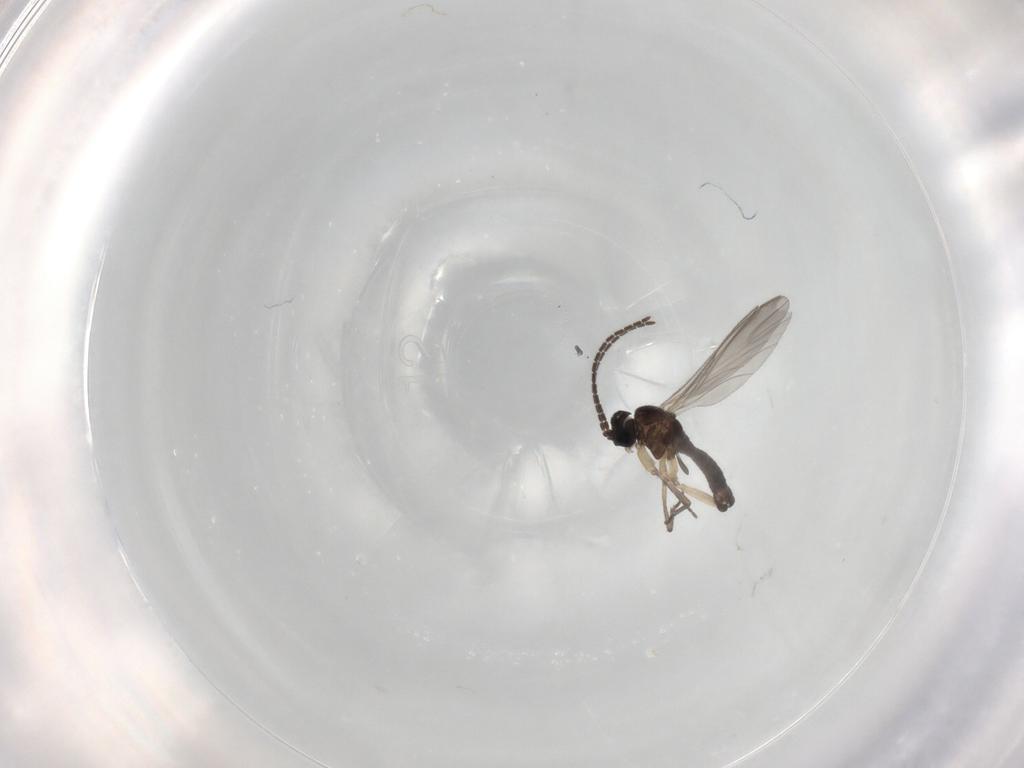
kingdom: Animalia
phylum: Arthropoda
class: Insecta
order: Diptera
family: Sciaridae
